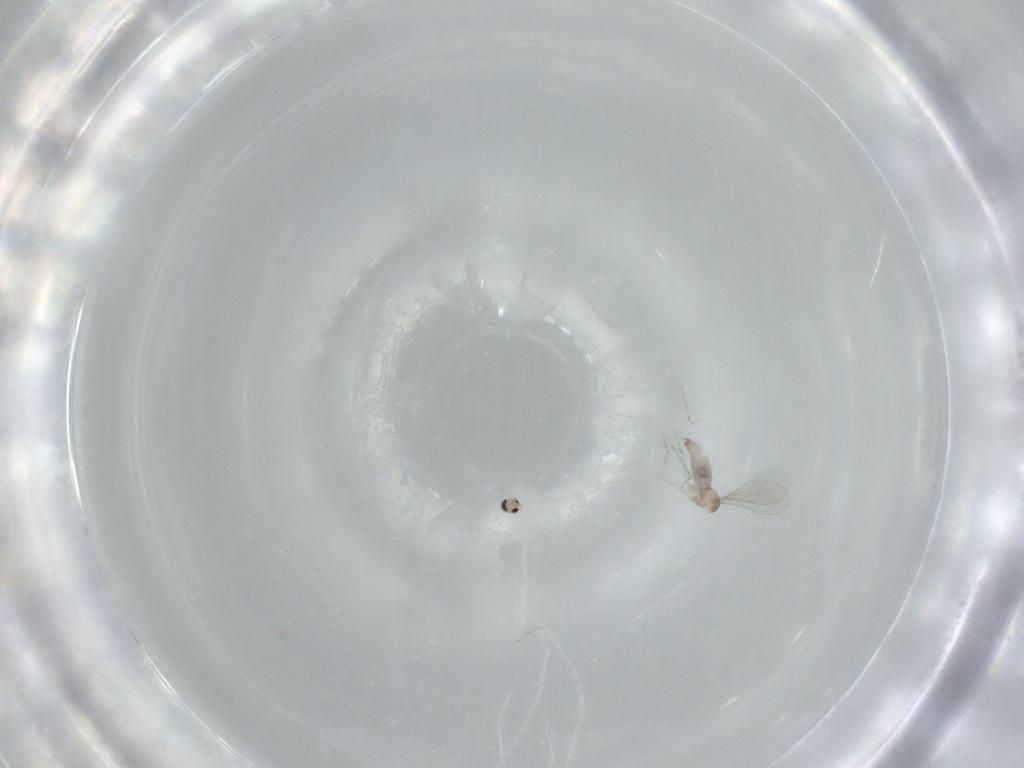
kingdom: Animalia
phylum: Arthropoda
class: Insecta
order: Diptera
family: Cecidomyiidae
